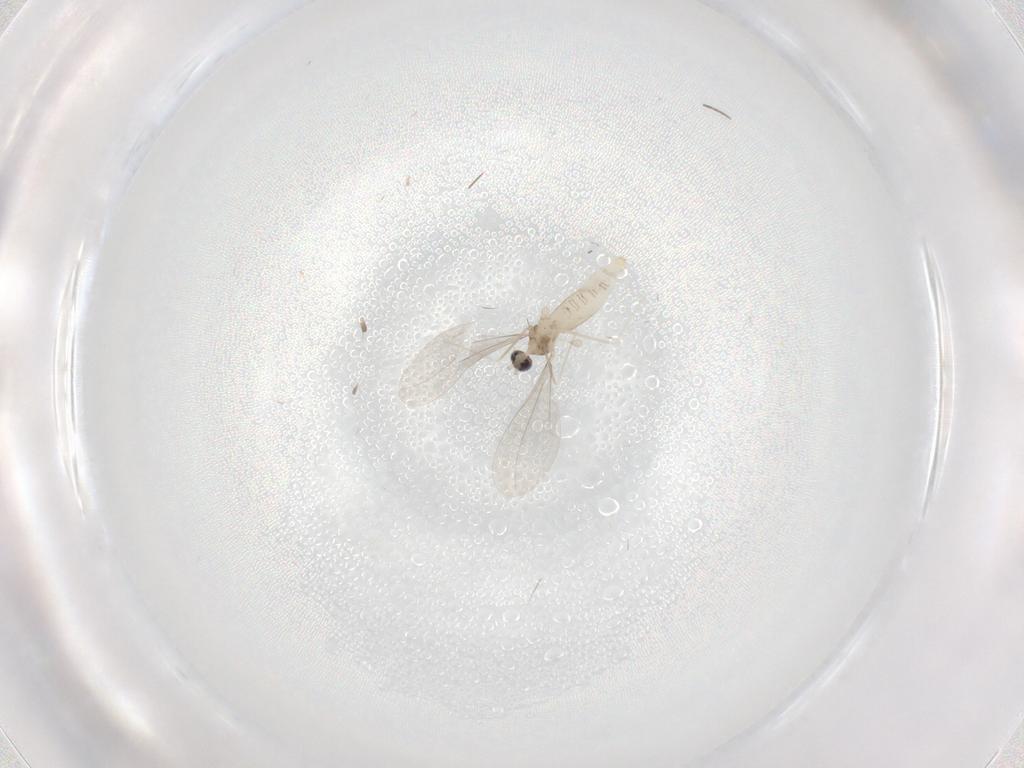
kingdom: Animalia
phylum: Arthropoda
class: Insecta
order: Diptera
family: Cecidomyiidae
